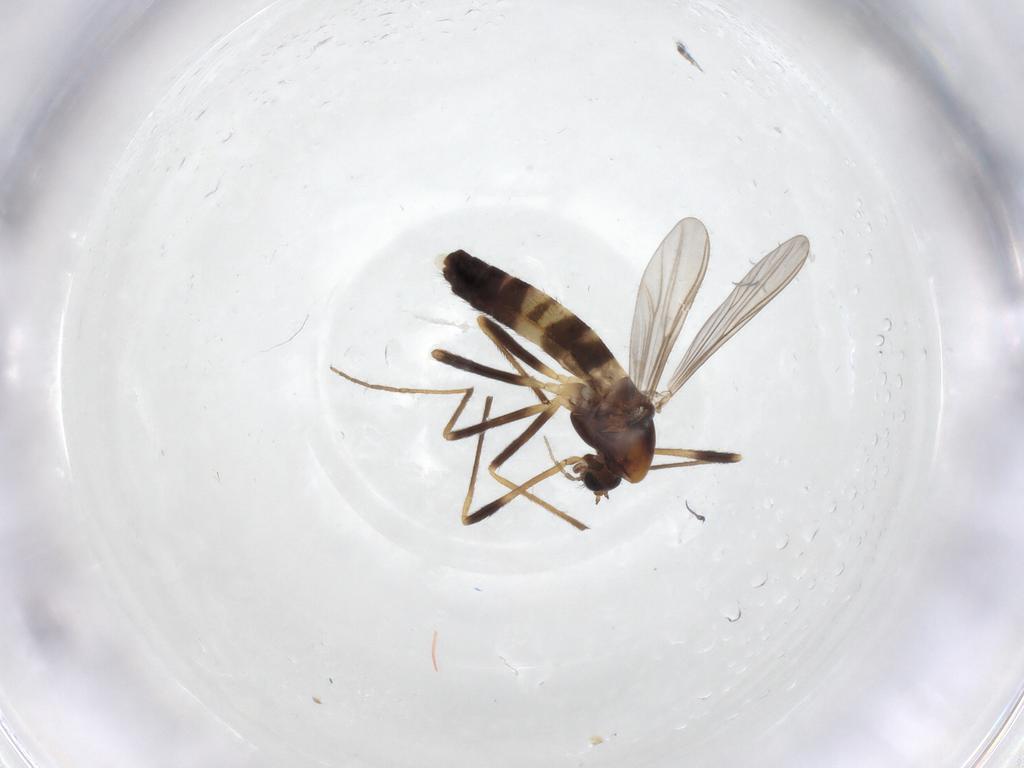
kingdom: Animalia
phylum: Arthropoda
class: Insecta
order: Diptera
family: Chironomidae
